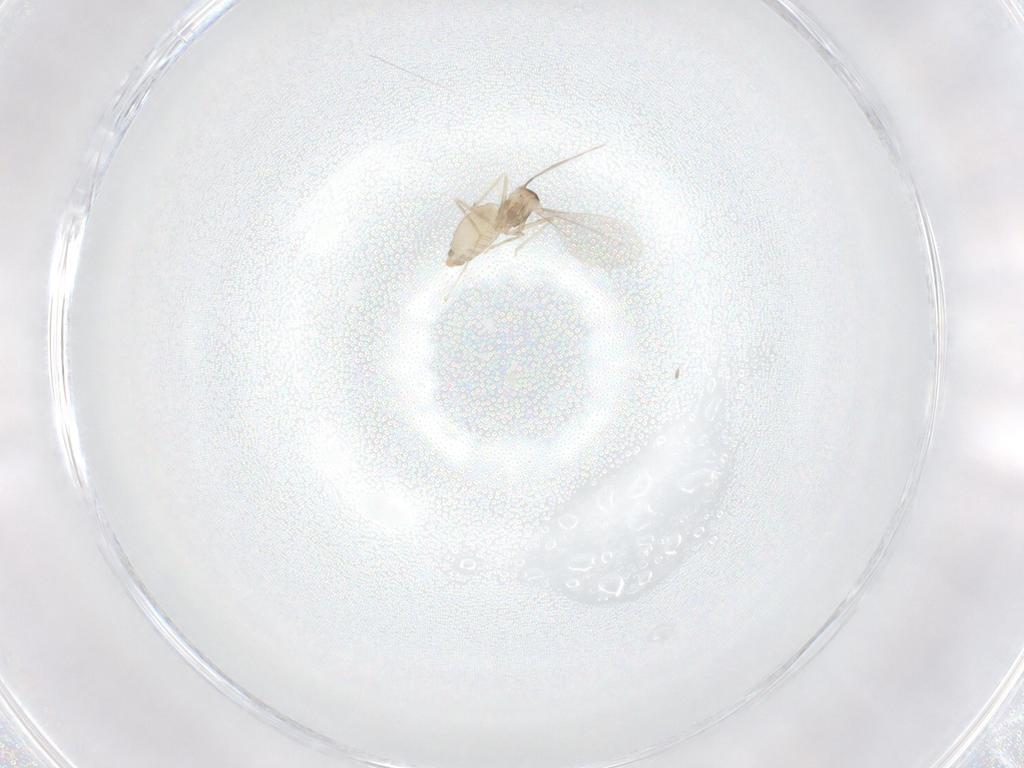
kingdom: Animalia
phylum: Arthropoda
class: Insecta
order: Diptera
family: Cecidomyiidae
